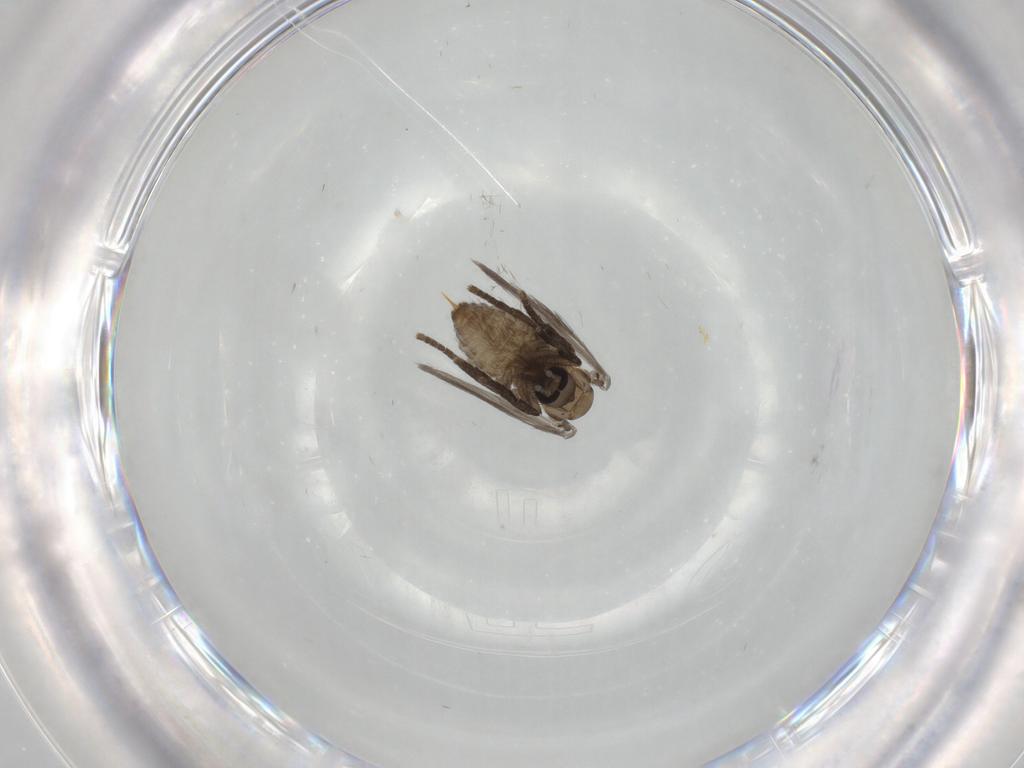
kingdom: Animalia
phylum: Arthropoda
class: Insecta
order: Diptera
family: Psychodidae
